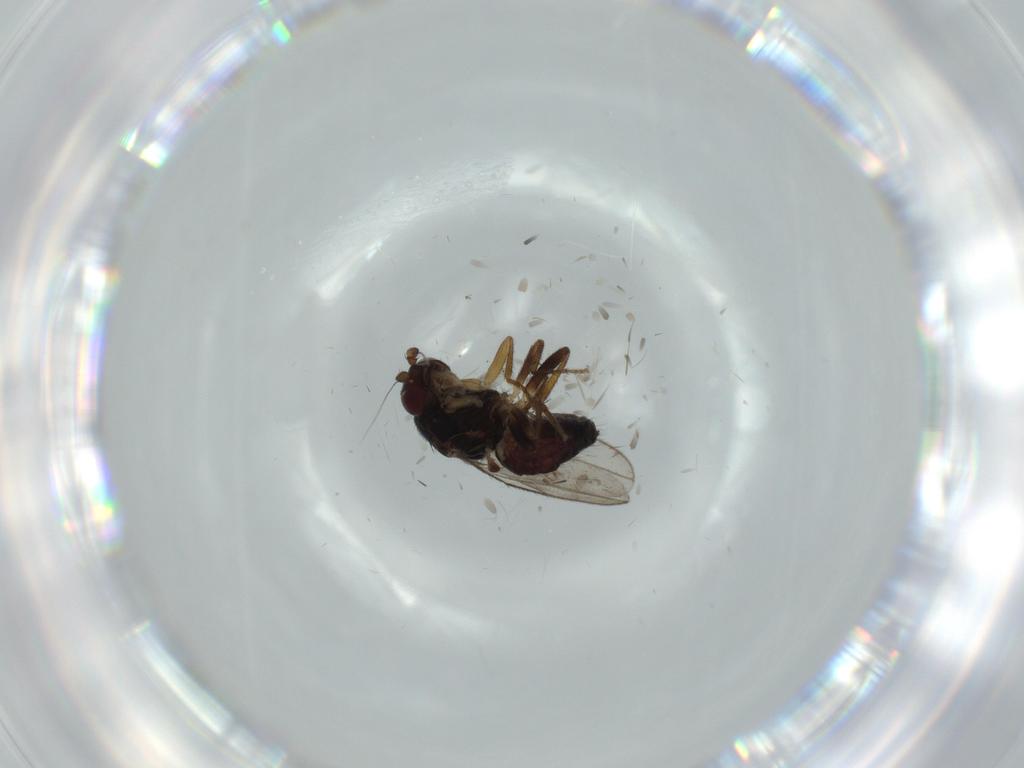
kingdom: Animalia
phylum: Arthropoda
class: Insecta
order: Diptera
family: Sphaeroceridae
